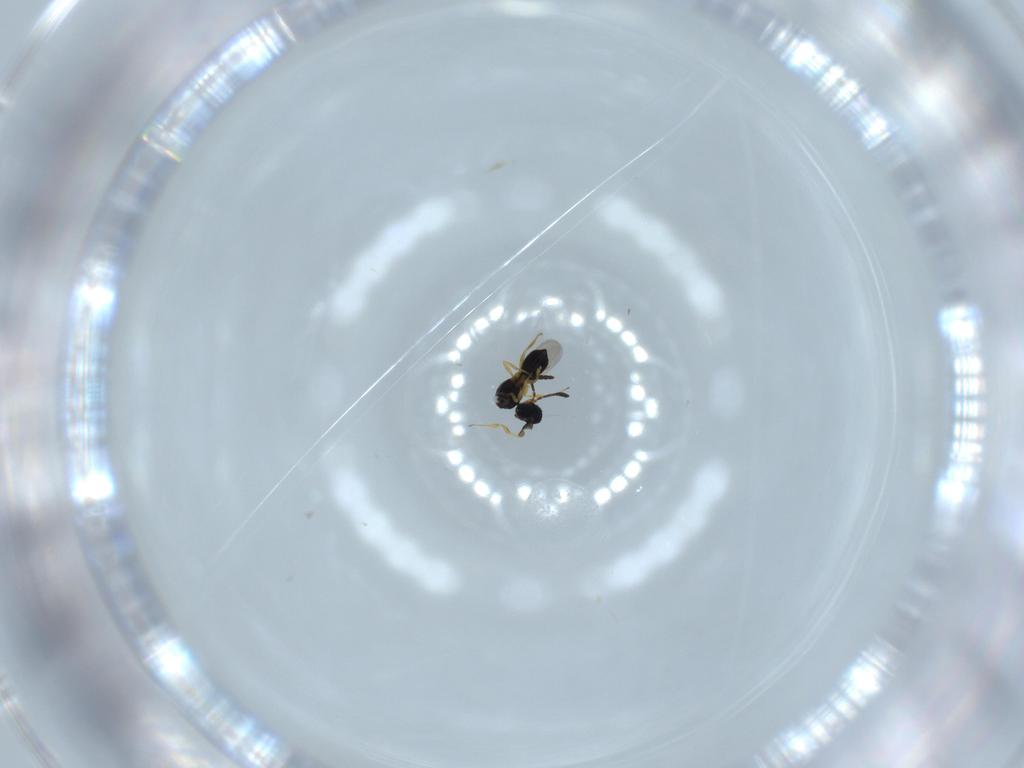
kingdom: Animalia
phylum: Arthropoda
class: Insecta
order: Hymenoptera
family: Scelionidae
